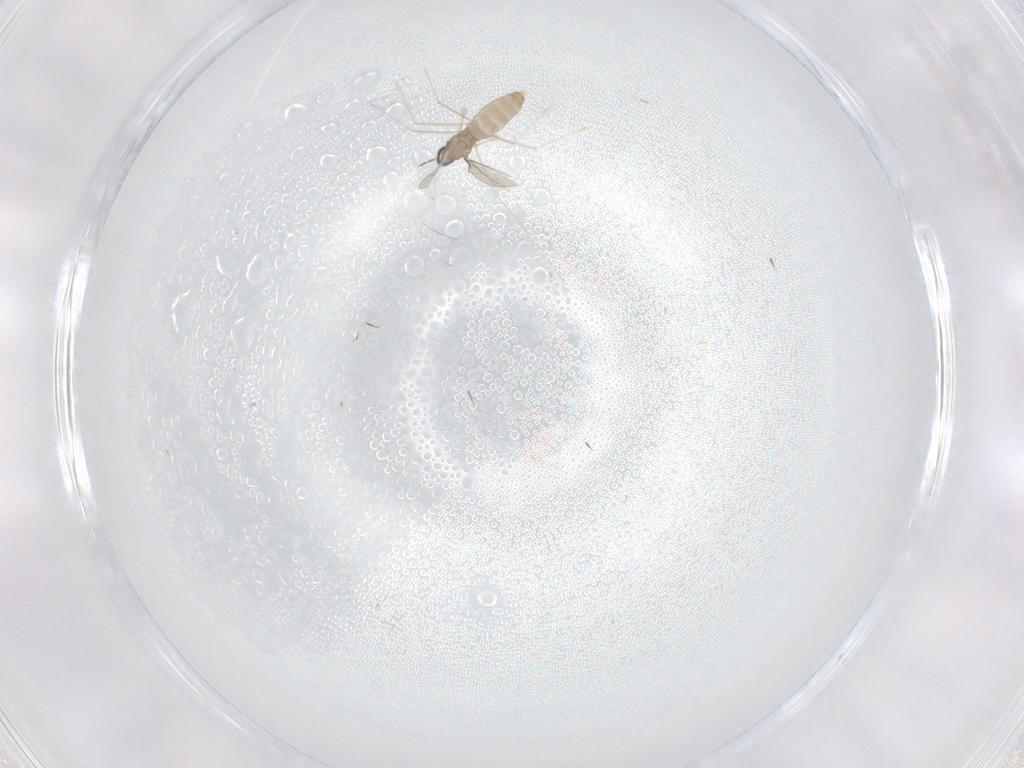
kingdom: Animalia
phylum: Arthropoda
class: Insecta
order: Diptera
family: Cecidomyiidae
